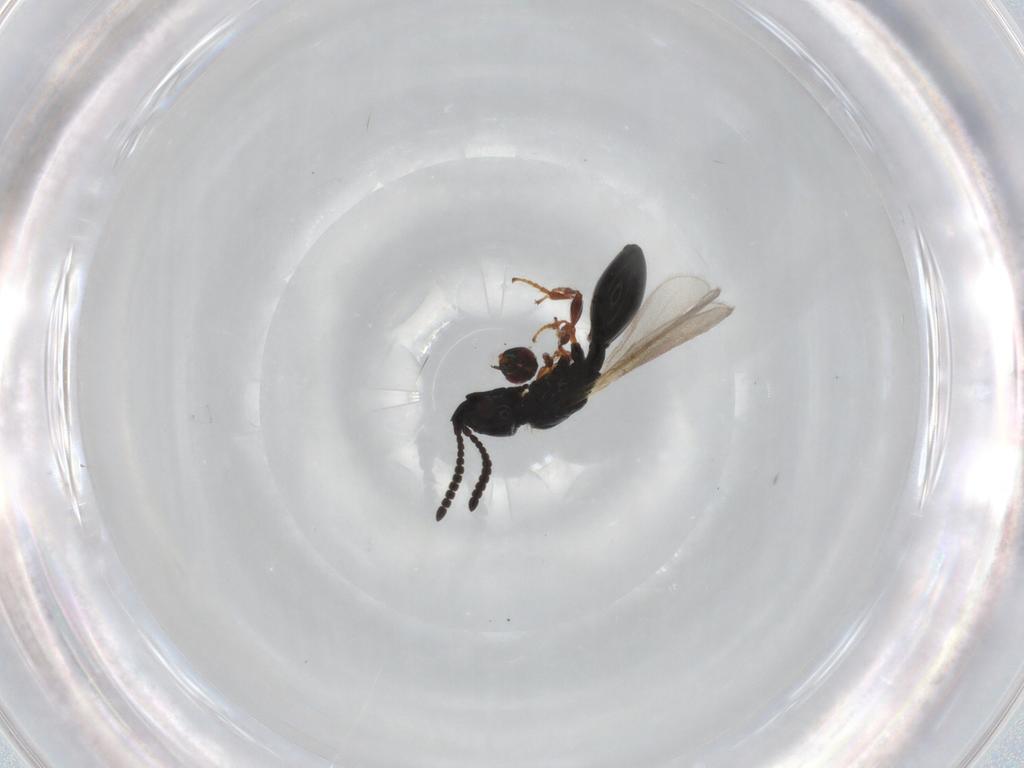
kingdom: Animalia
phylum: Arthropoda
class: Insecta
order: Hymenoptera
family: Diapriidae
